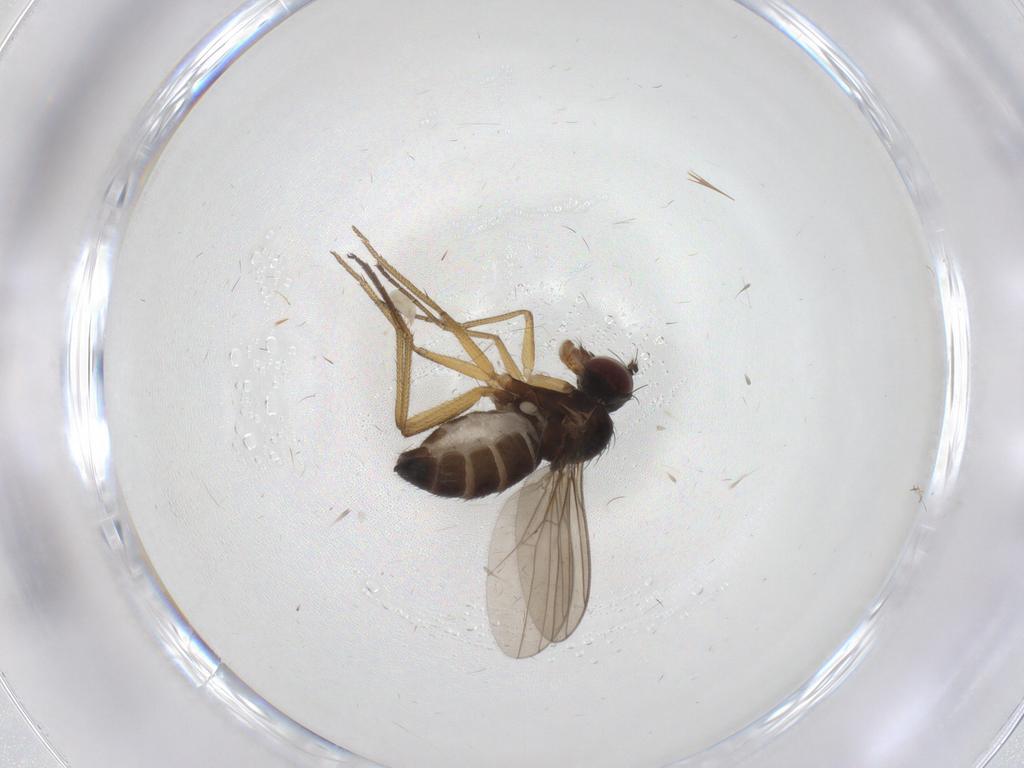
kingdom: Animalia
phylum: Arthropoda
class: Insecta
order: Diptera
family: Dolichopodidae
